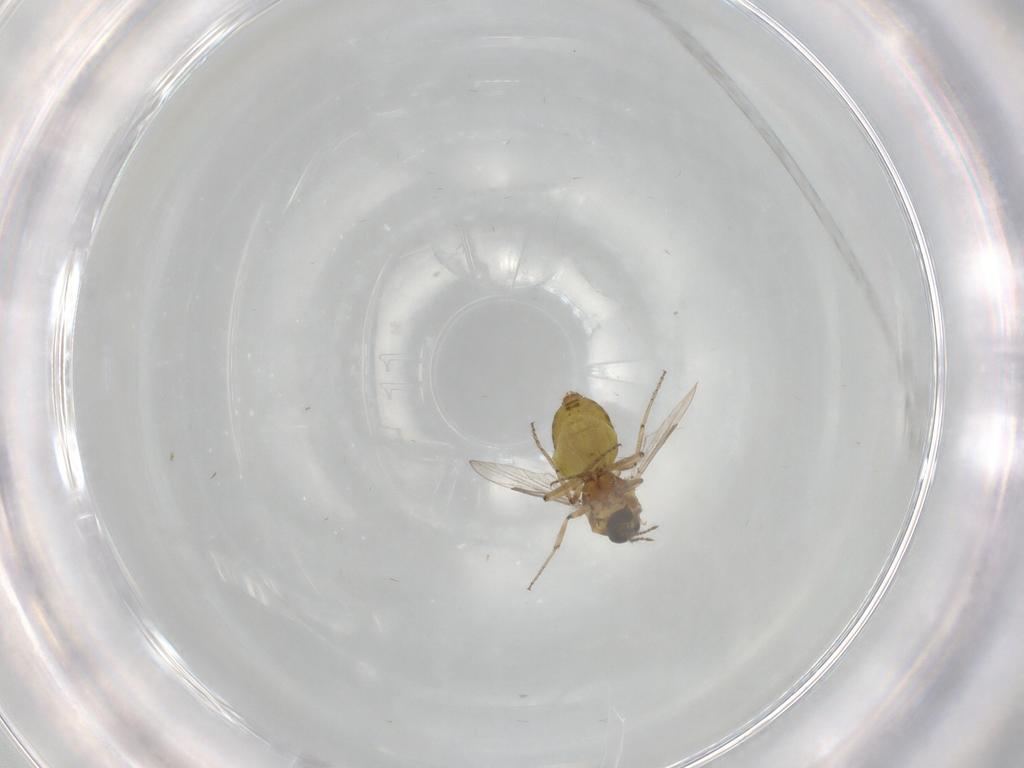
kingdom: Animalia
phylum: Arthropoda
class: Insecta
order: Diptera
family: Ceratopogonidae
